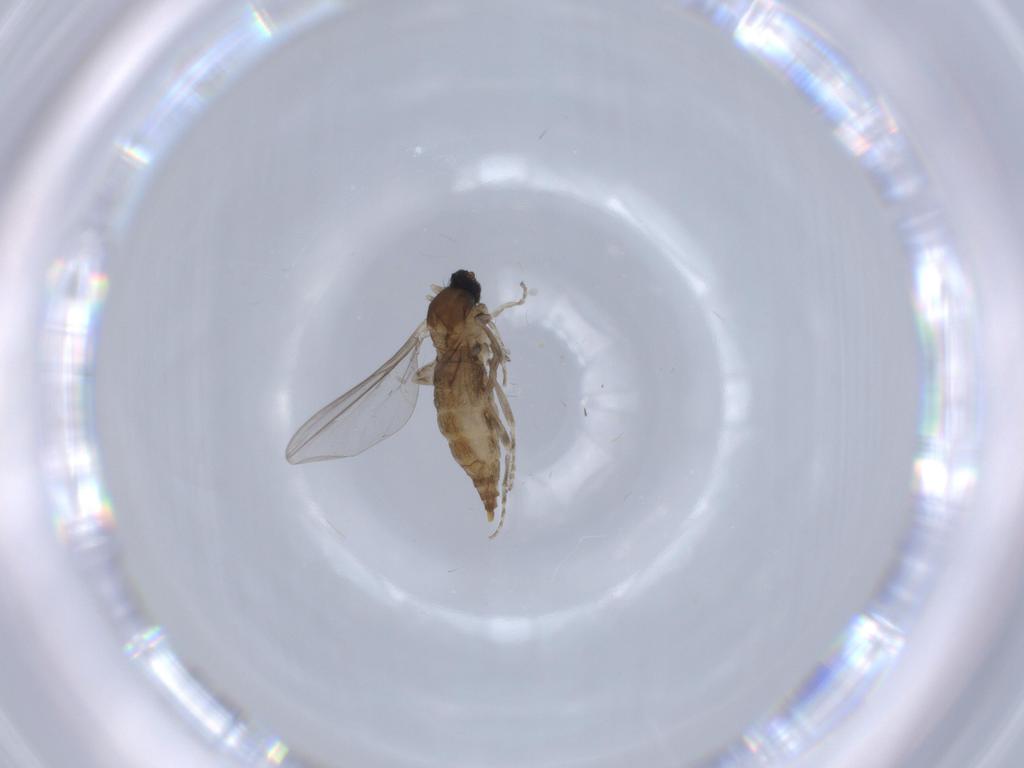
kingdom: Animalia
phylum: Arthropoda
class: Insecta
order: Diptera
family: Cecidomyiidae
